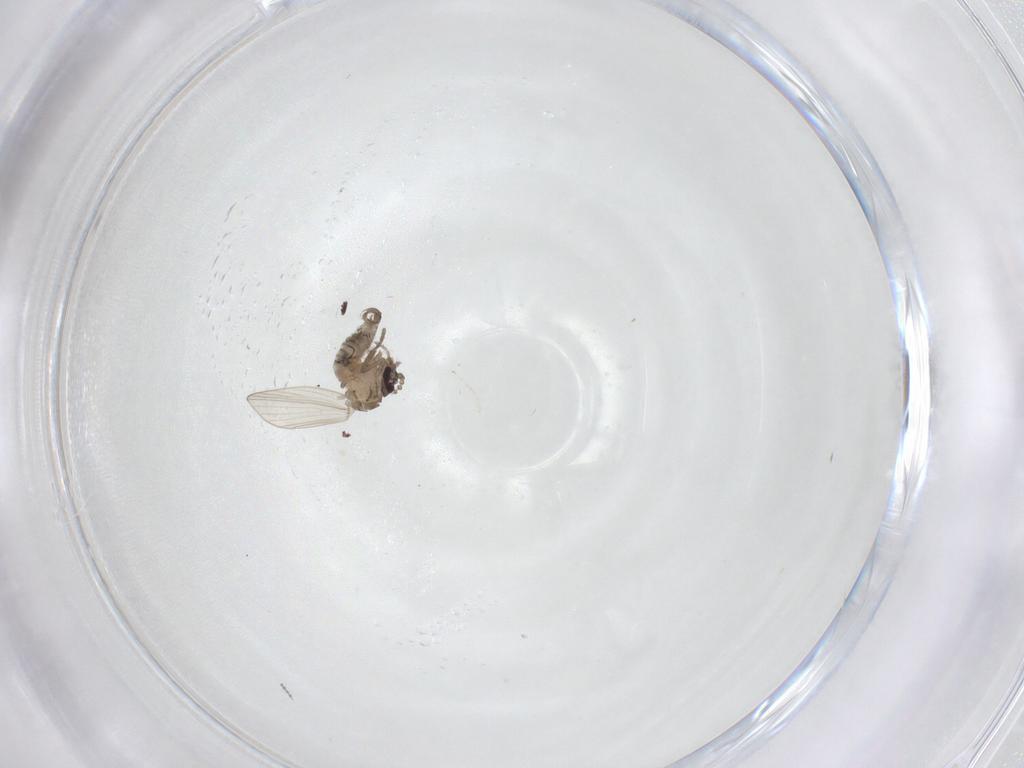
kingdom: Animalia
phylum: Arthropoda
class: Insecta
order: Diptera
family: Psychodidae
